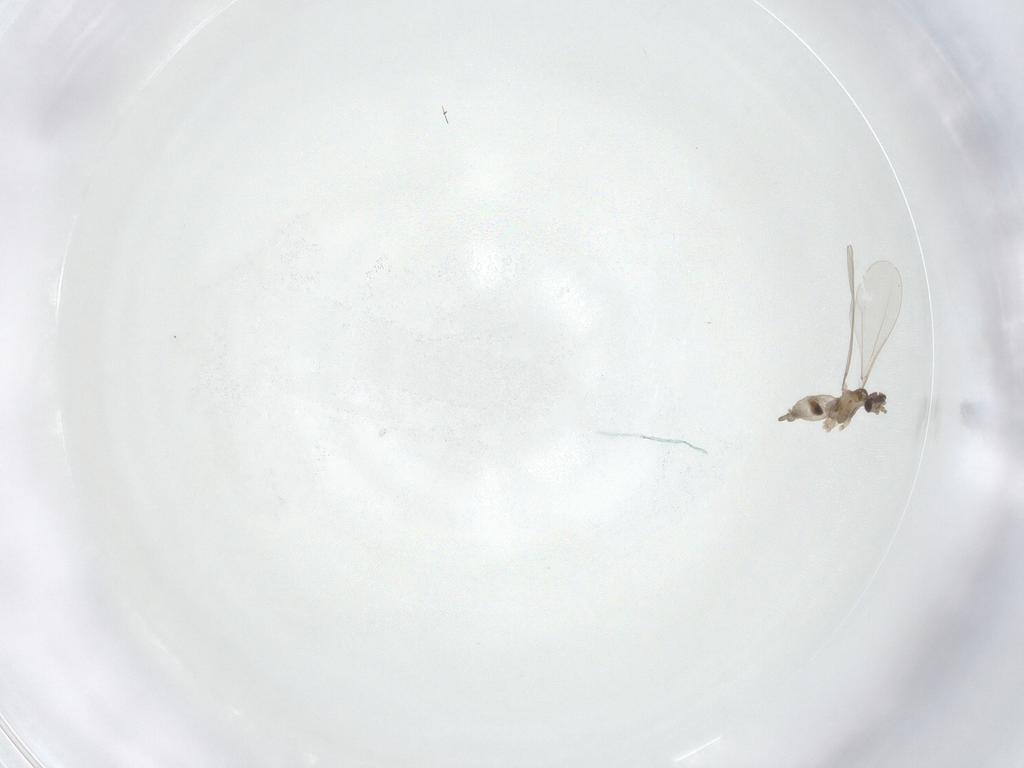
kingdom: Animalia
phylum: Arthropoda
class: Insecta
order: Diptera
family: Cecidomyiidae
